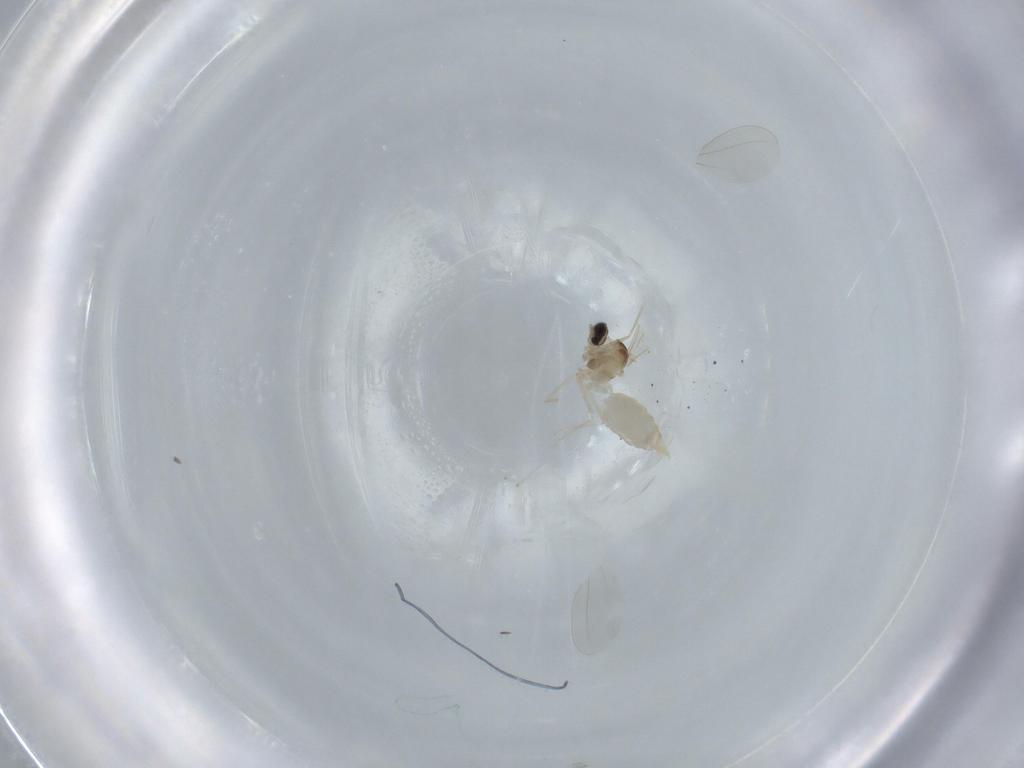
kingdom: Animalia
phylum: Arthropoda
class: Insecta
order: Diptera
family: Cecidomyiidae
